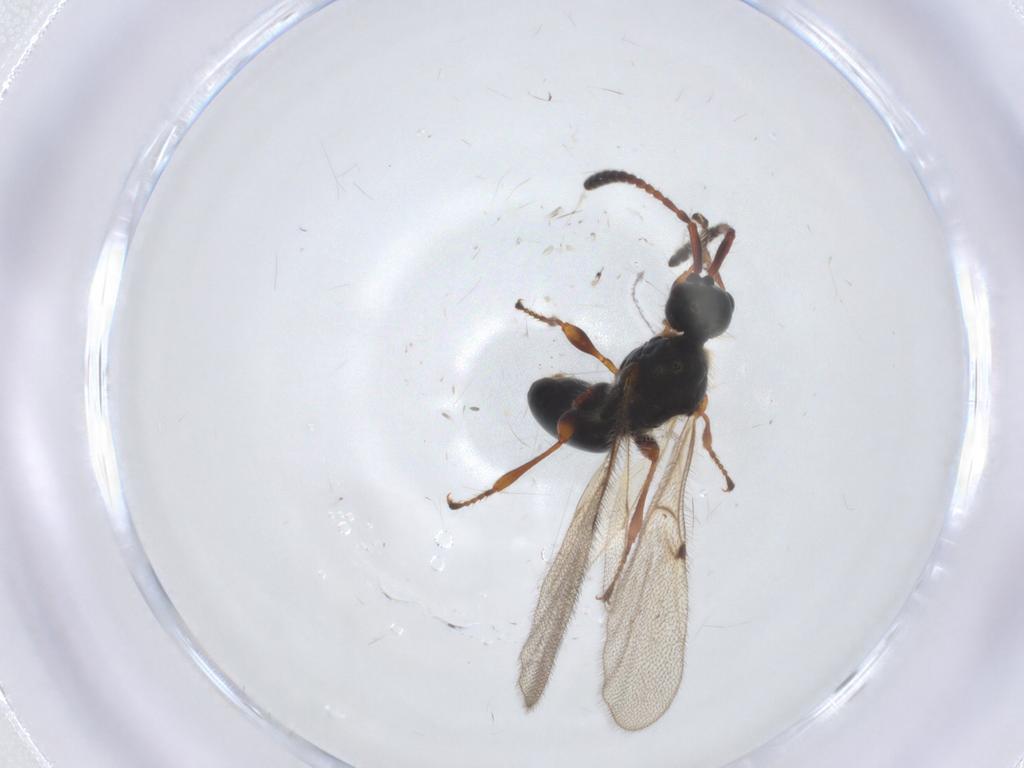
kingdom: Animalia
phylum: Arthropoda
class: Insecta
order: Hymenoptera
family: Diapriidae
